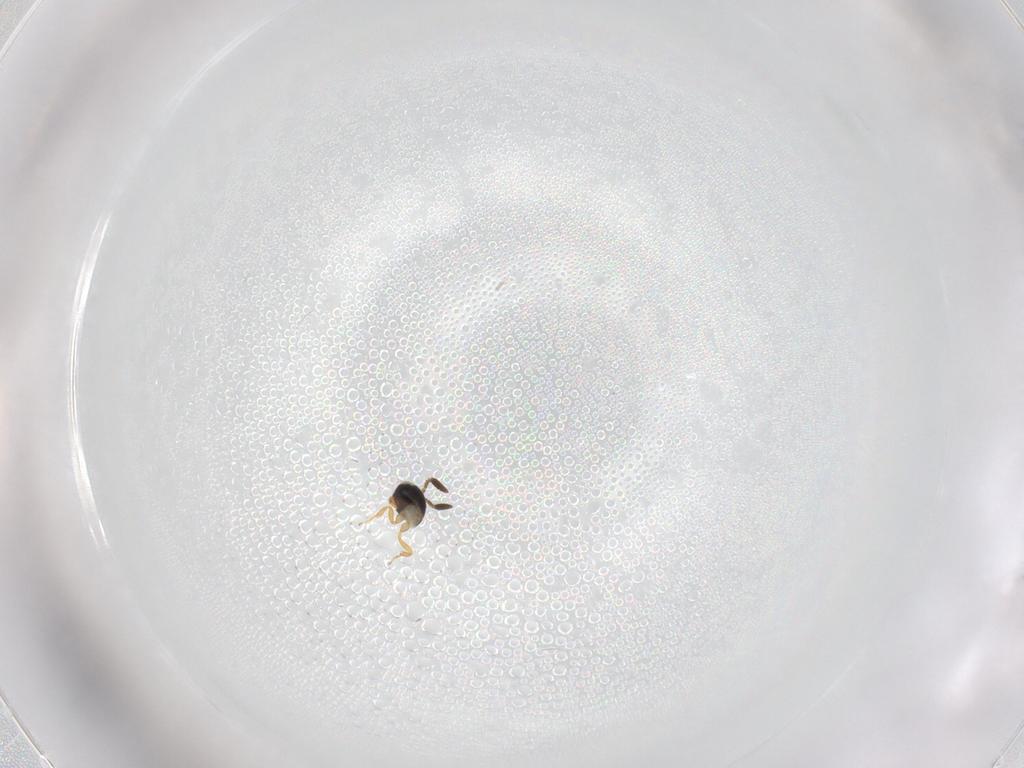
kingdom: Animalia
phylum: Arthropoda
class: Insecta
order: Hymenoptera
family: Scelionidae
